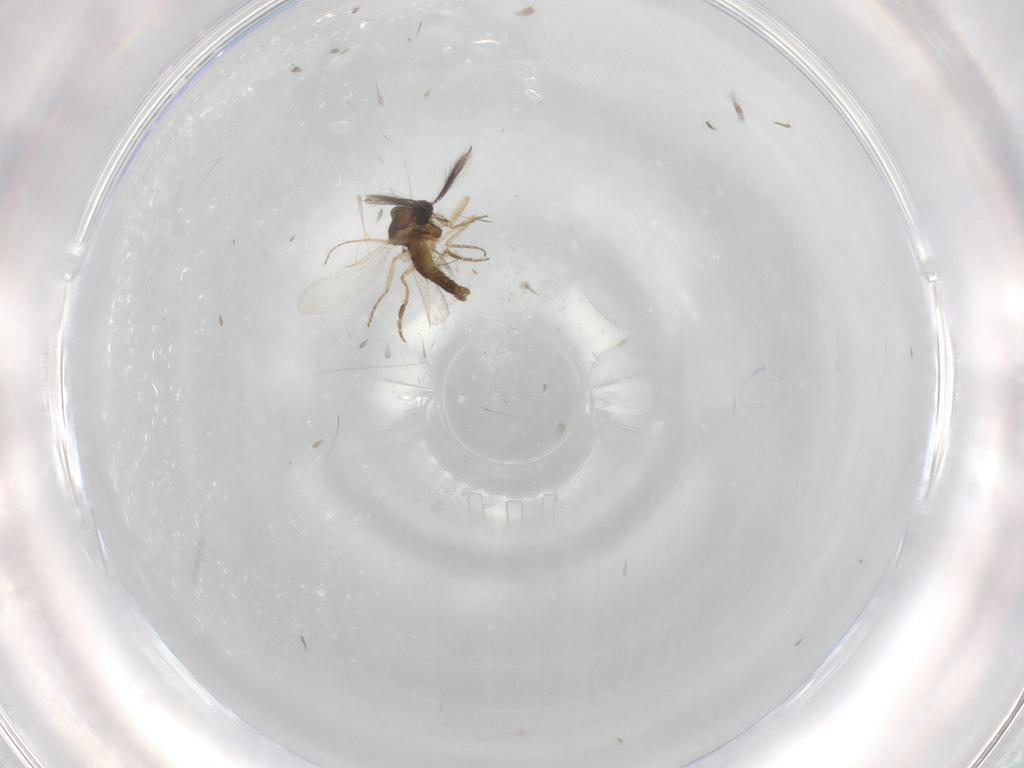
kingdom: Animalia
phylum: Arthropoda
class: Insecta
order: Diptera
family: Ceratopogonidae
